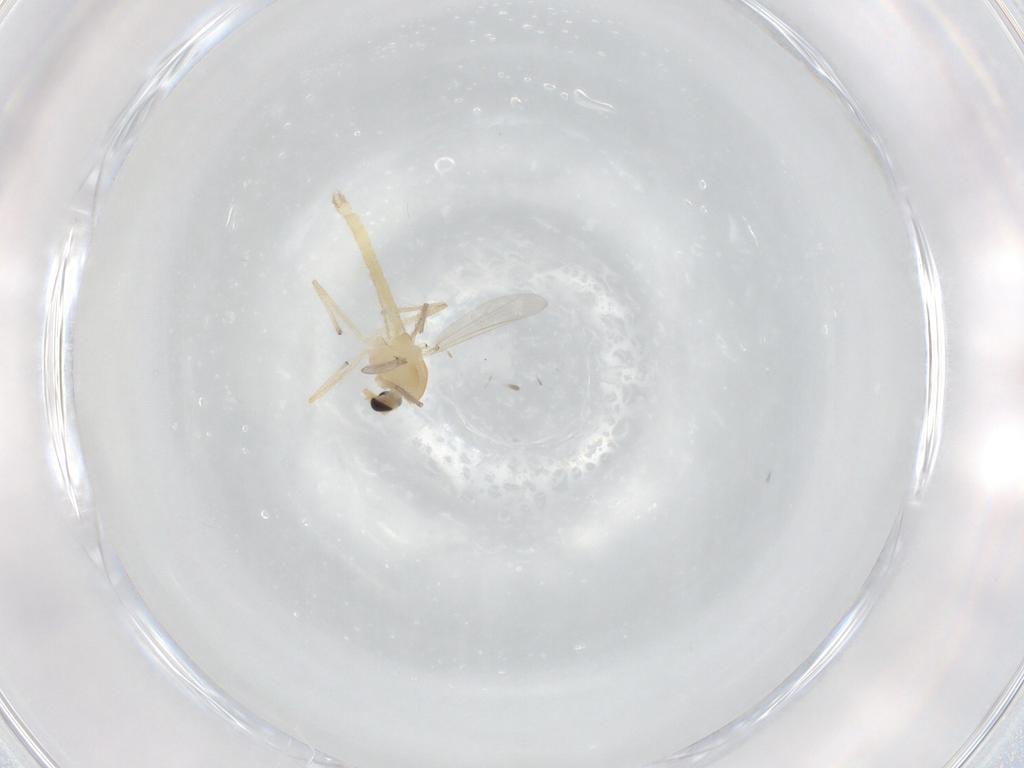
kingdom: Animalia
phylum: Arthropoda
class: Insecta
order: Diptera
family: Chironomidae
